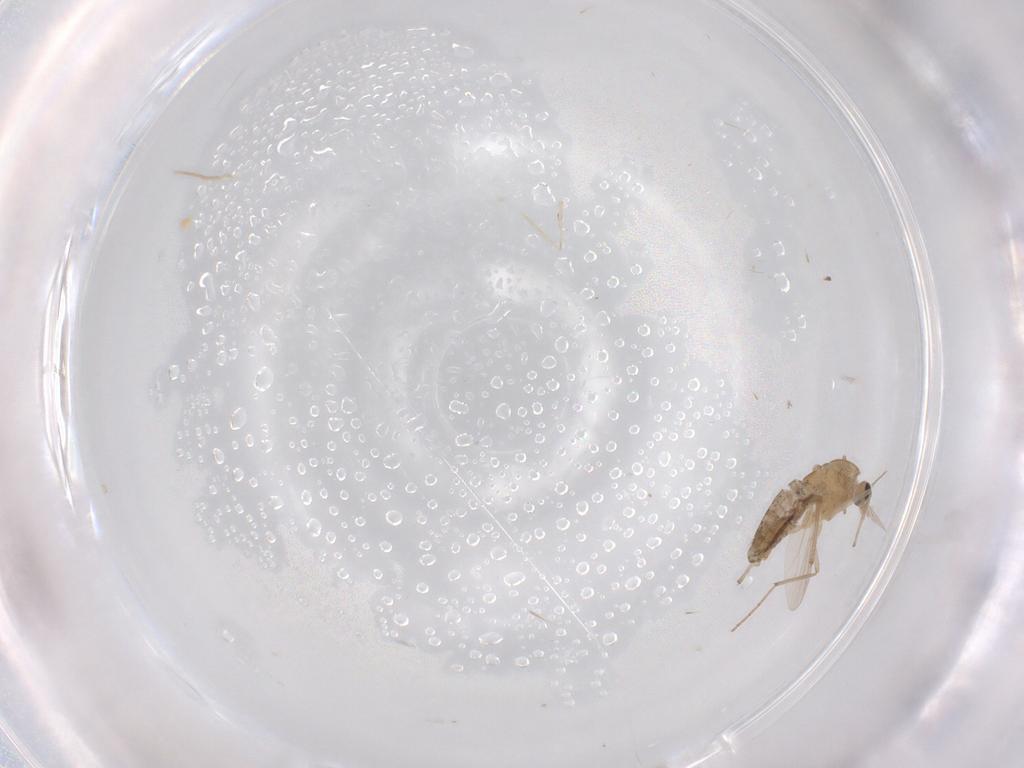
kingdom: Animalia
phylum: Arthropoda
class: Insecta
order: Diptera
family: Chironomidae
